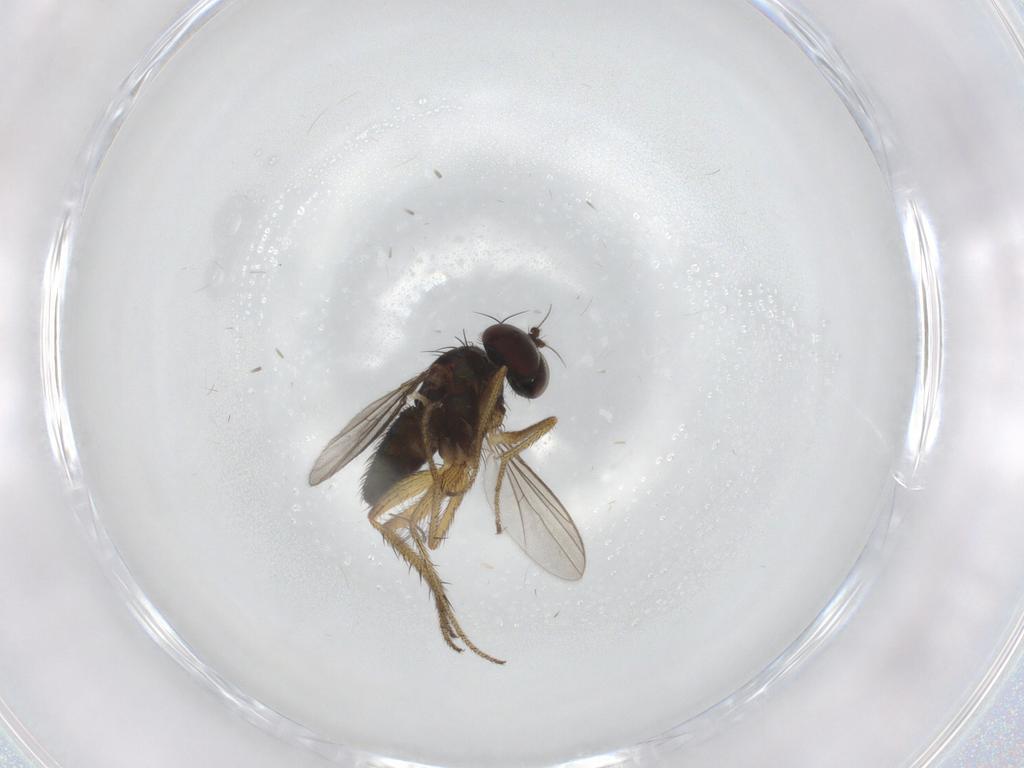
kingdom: Animalia
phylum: Arthropoda
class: Insecta
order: Diptera
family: Dolichopodidae
